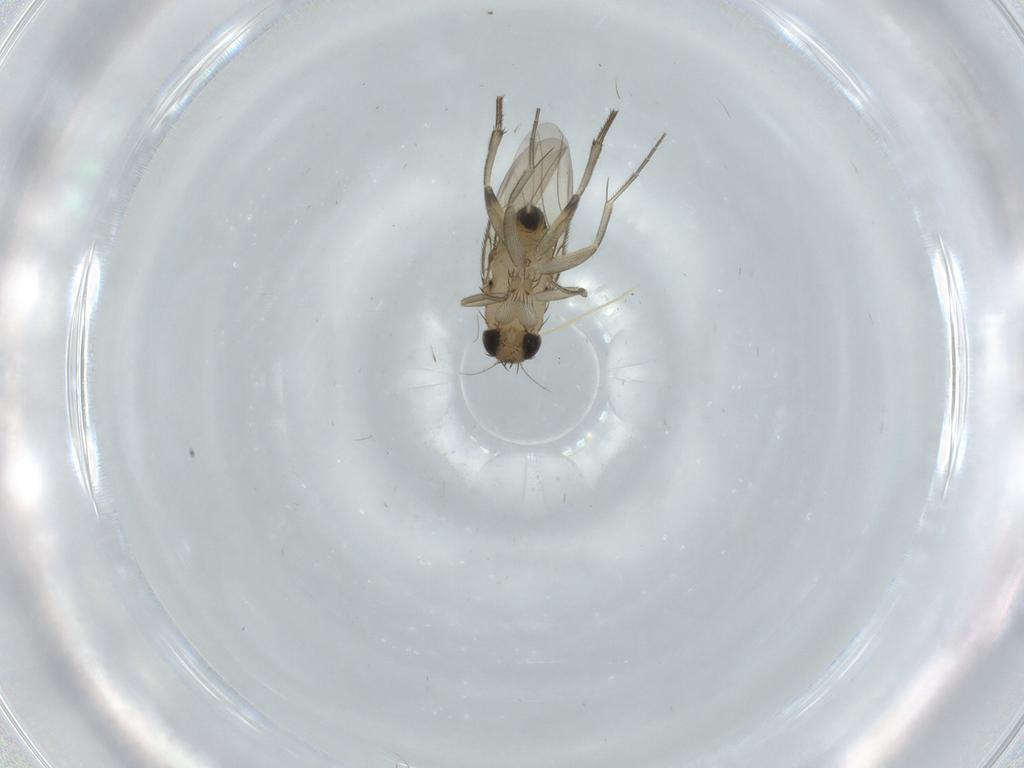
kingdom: Animalia
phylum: Arthropoda
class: Insecta
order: Diptera
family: Phoridae
